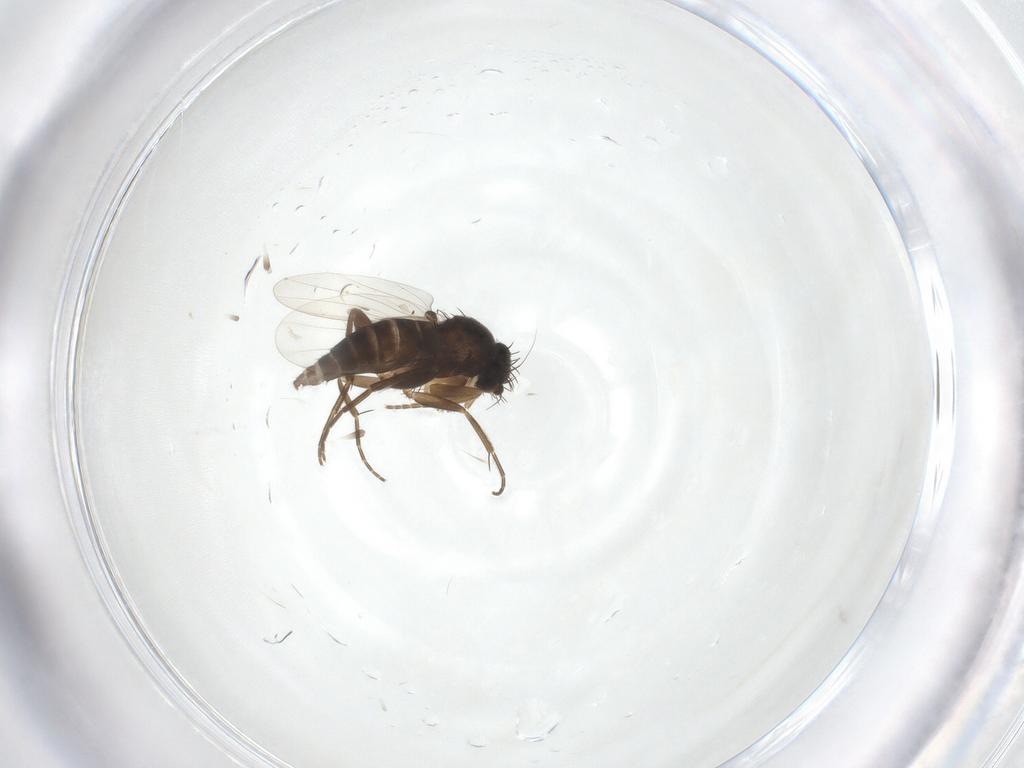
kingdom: Animalia
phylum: Arthropoda
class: Insecta
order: Diptera
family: Phoridae
